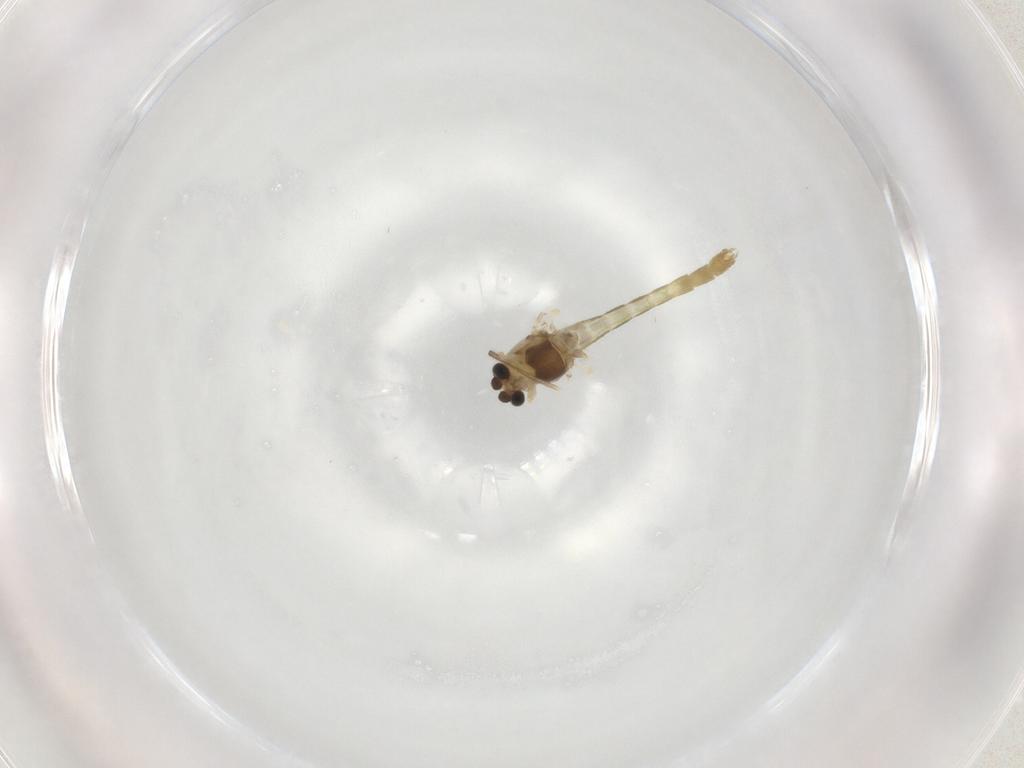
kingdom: Animalia
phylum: Arthropoda
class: Insecta
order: Diptera
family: Chironomidae
